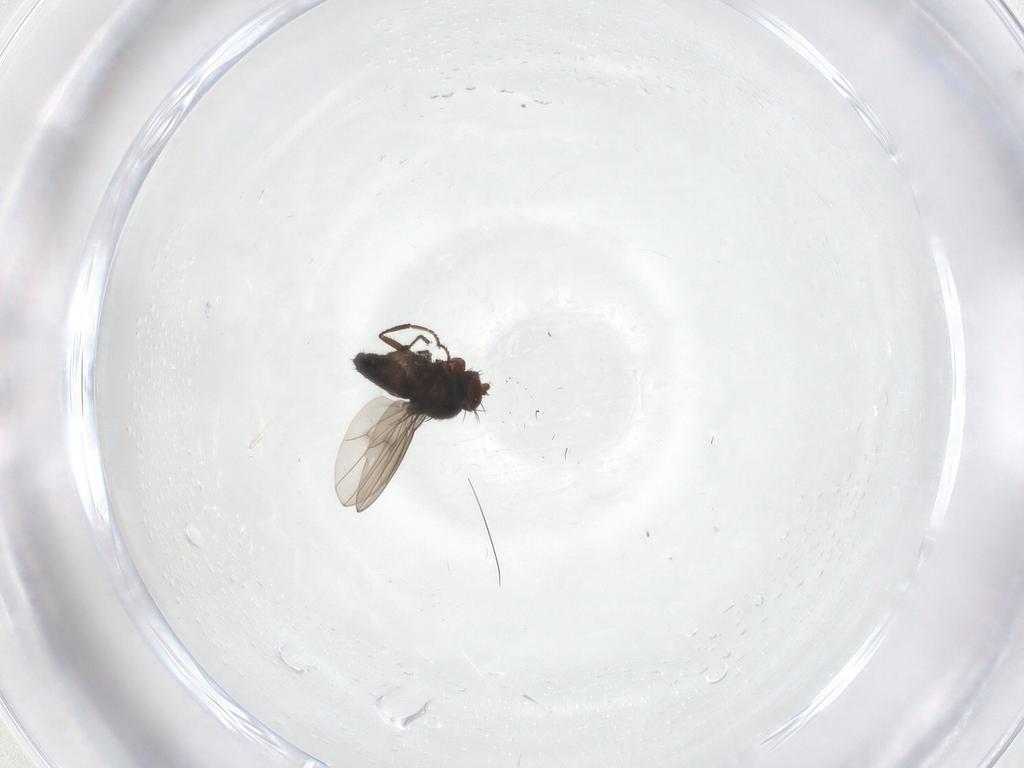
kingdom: Animalia
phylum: Arthropoda
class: Insecta
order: Diptera
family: Ephydridae
